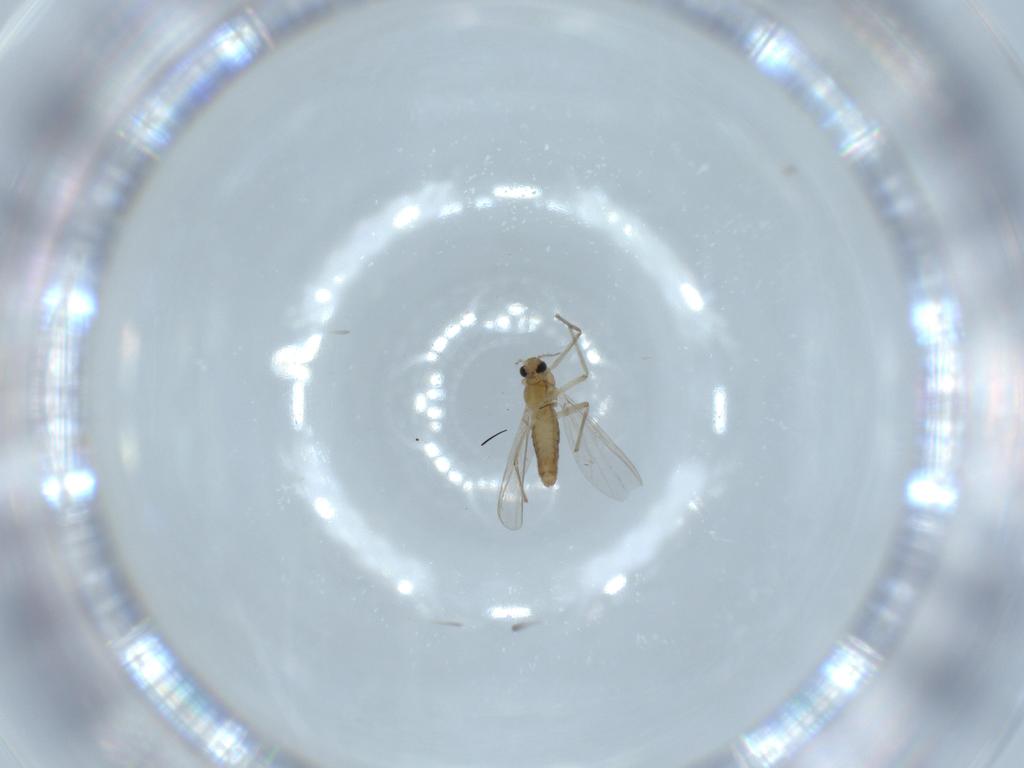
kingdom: Animalia
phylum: Arthropoda
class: Insecta
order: Diptera
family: Chironomidae
